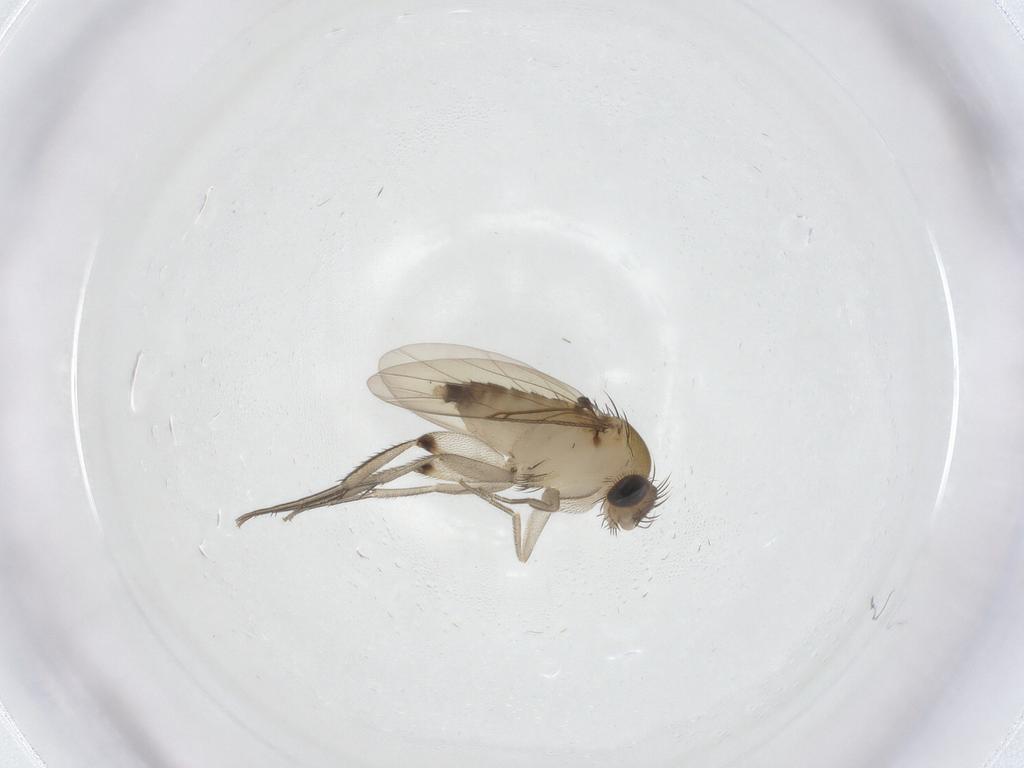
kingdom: Animalia
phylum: Arthropoda
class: Insecta
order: Diptera
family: Phoridae
